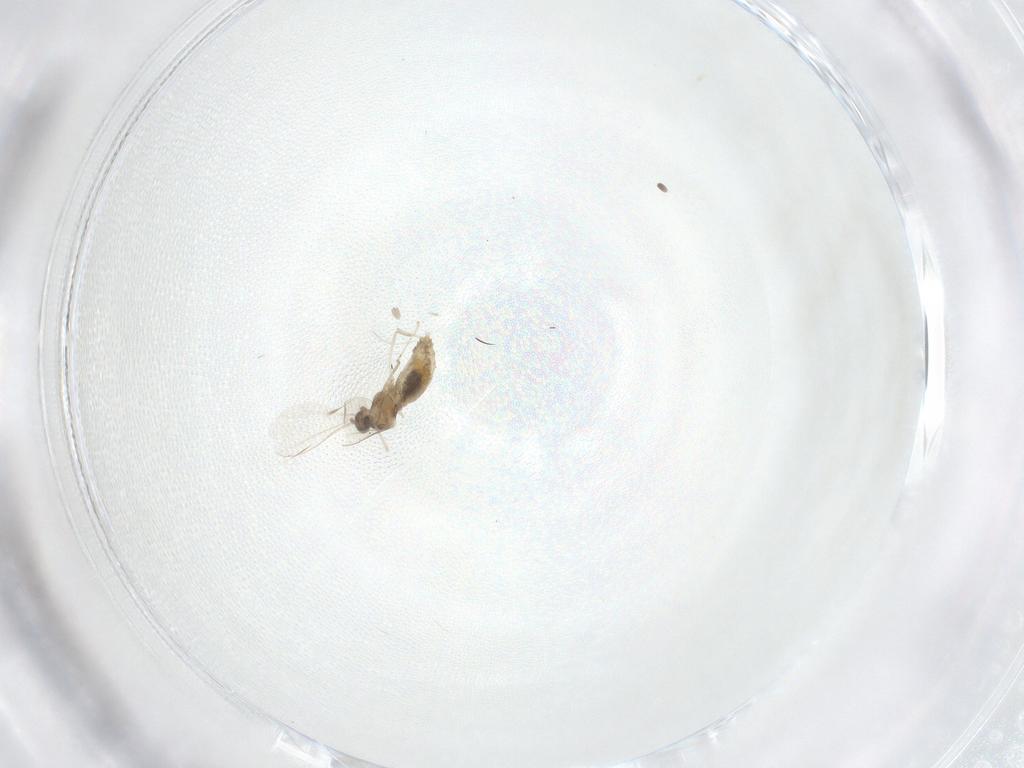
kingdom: Animalia
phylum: Arthropoda
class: Insecta
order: Diptera
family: Cecidomyiidae
